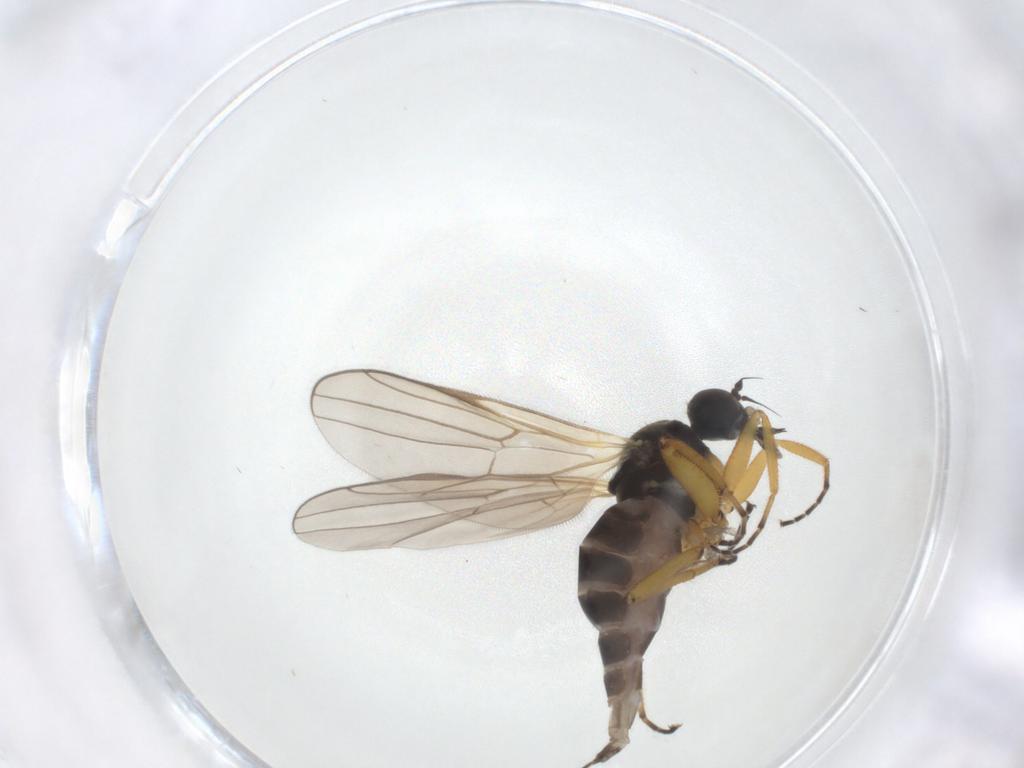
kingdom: Animalia
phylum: Arthropoda
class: Insecta
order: Diptera
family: Hybotidae
